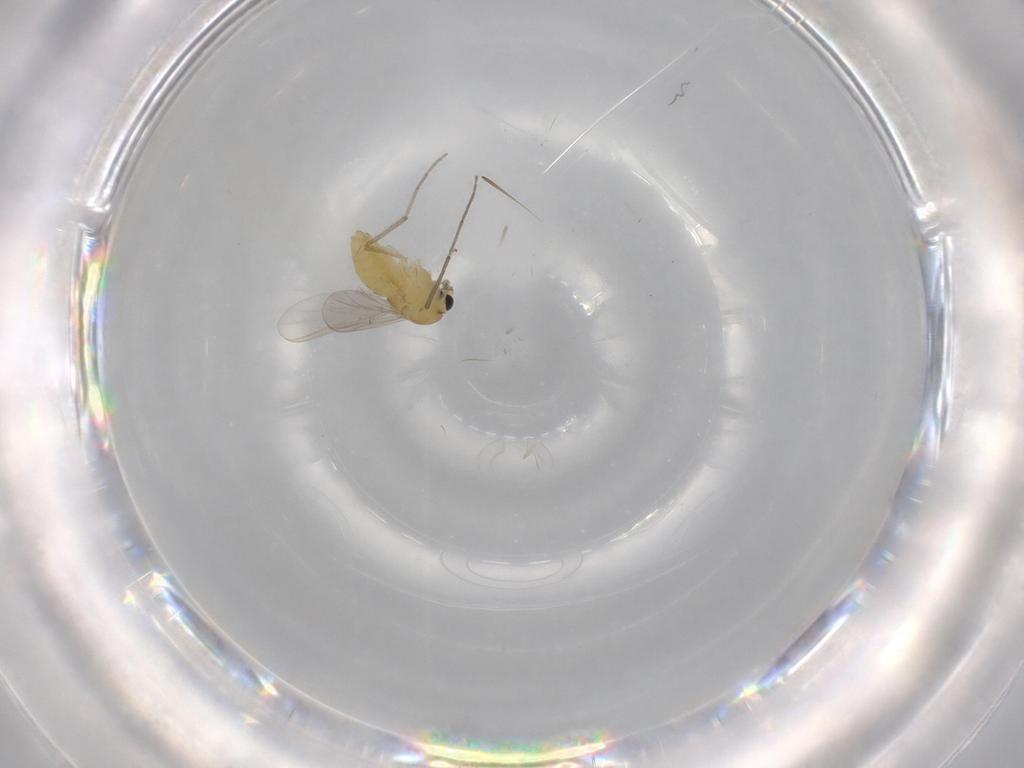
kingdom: Animalia
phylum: Arthropoda
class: Insecta
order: Diptera
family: Chironomidae
